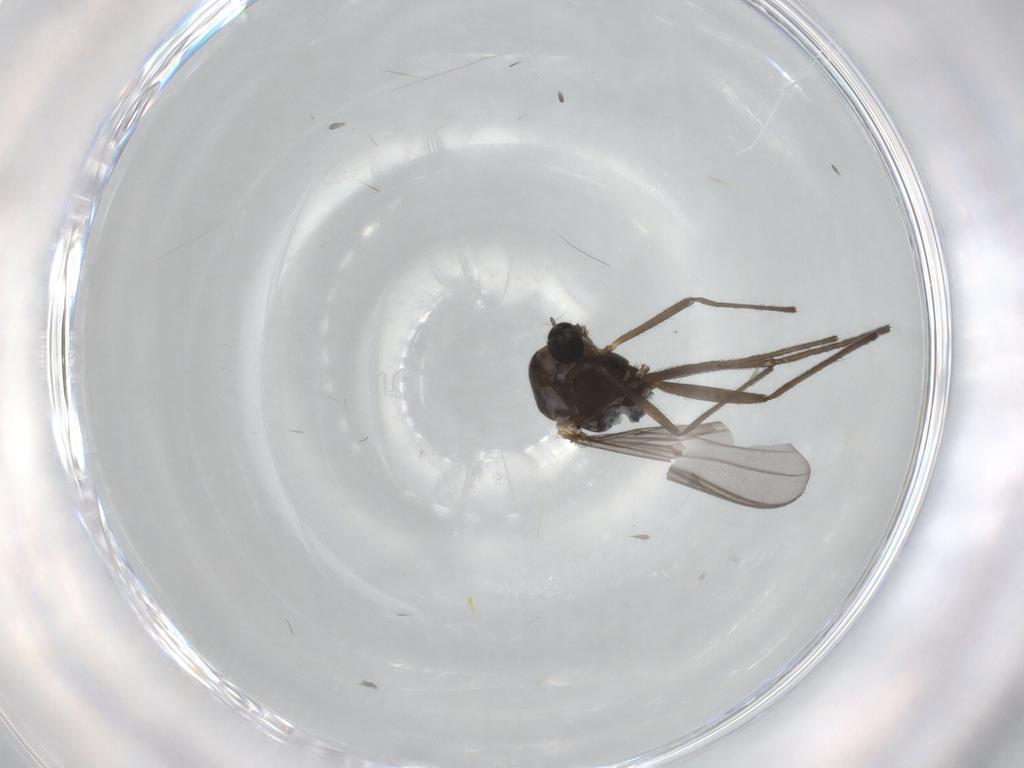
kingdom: Animalia
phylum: Arthropoda
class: Insecta
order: Diptera
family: Chironomidae
